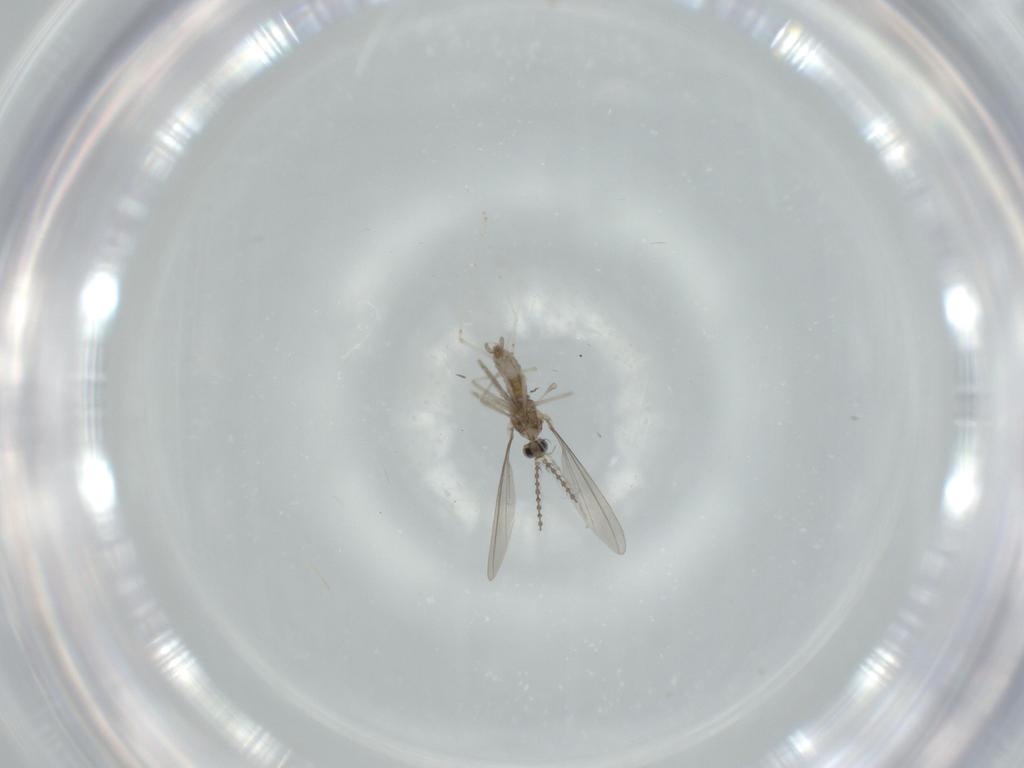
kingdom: Animalia
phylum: Arthropoda
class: Insecta
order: Diptera
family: Cecidomyiidae
